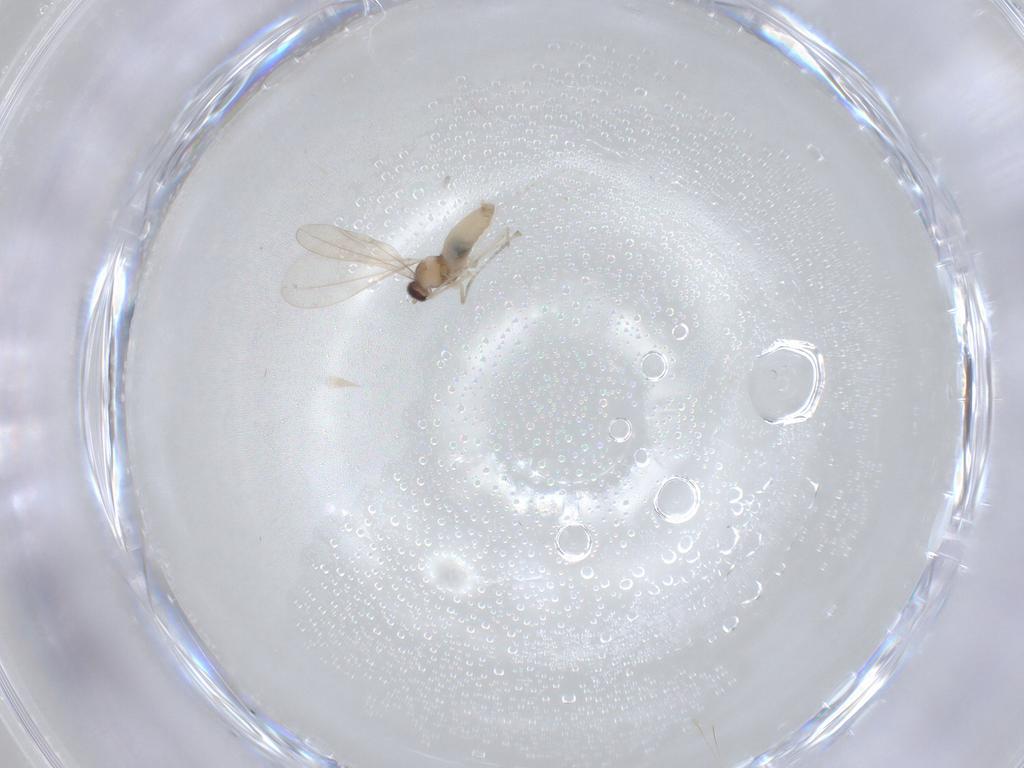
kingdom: Animalia
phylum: Arthropoda
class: Insecta
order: Diptera
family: Cecidomyiidae
